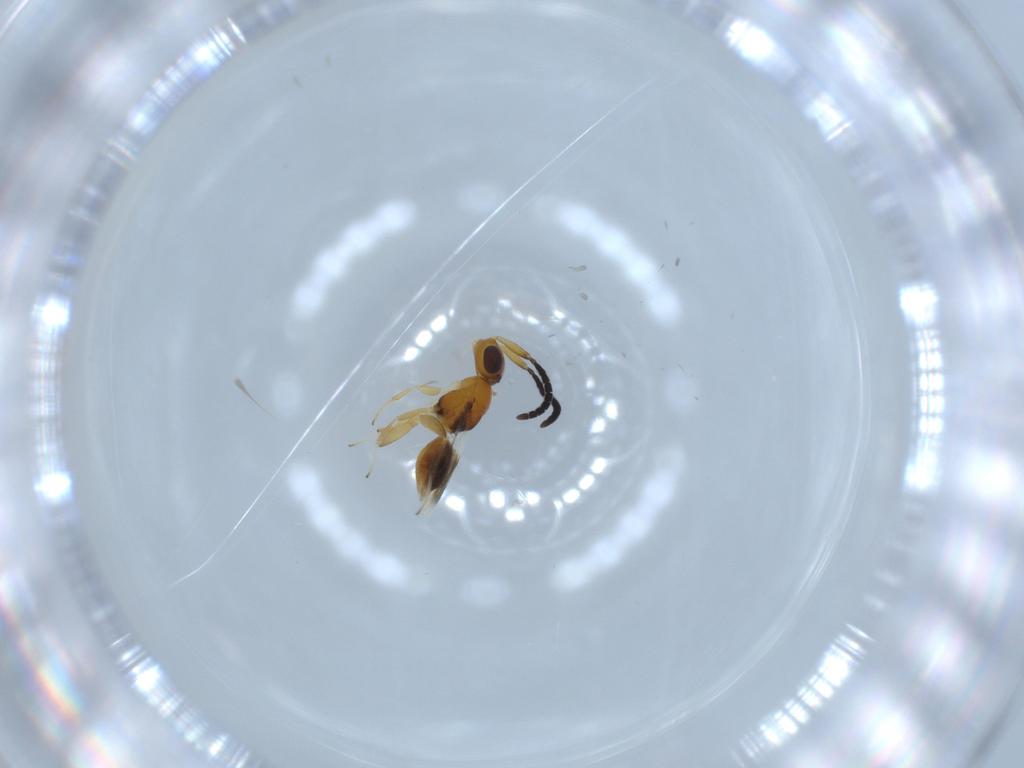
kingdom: Animalia
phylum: Arthropoda
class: Insecta
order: Hymenoptera
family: Megaspilidae
